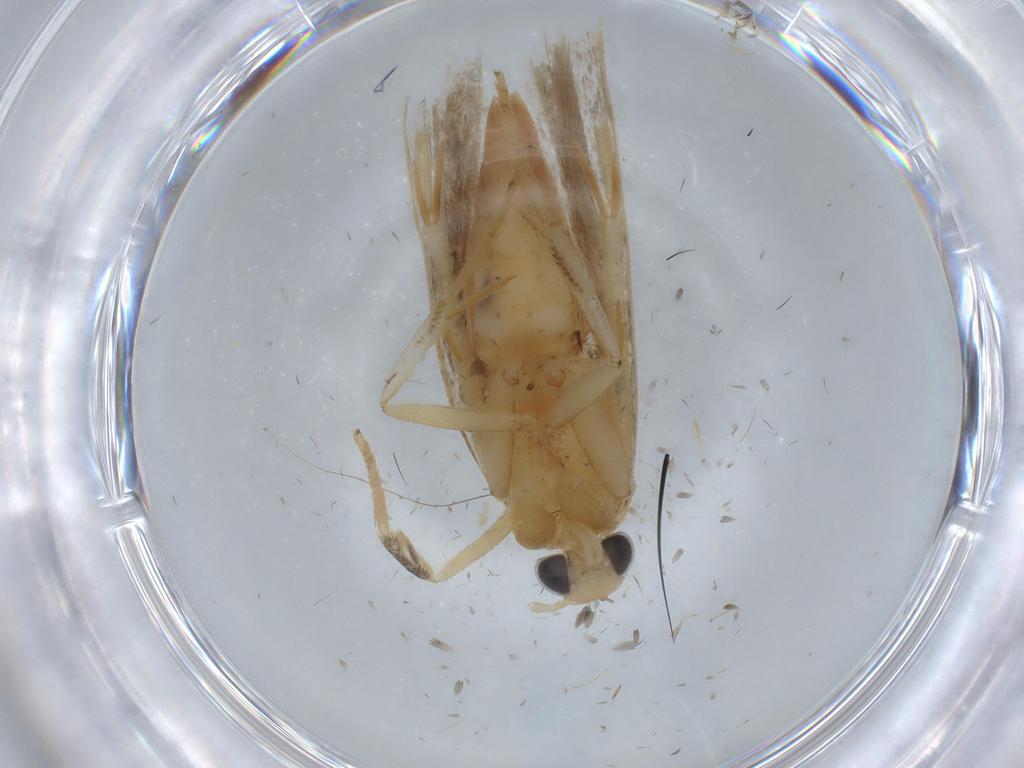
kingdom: Animalia
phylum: Arthropoda
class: Insecta
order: Lepidoptera
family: Gelechiidae
